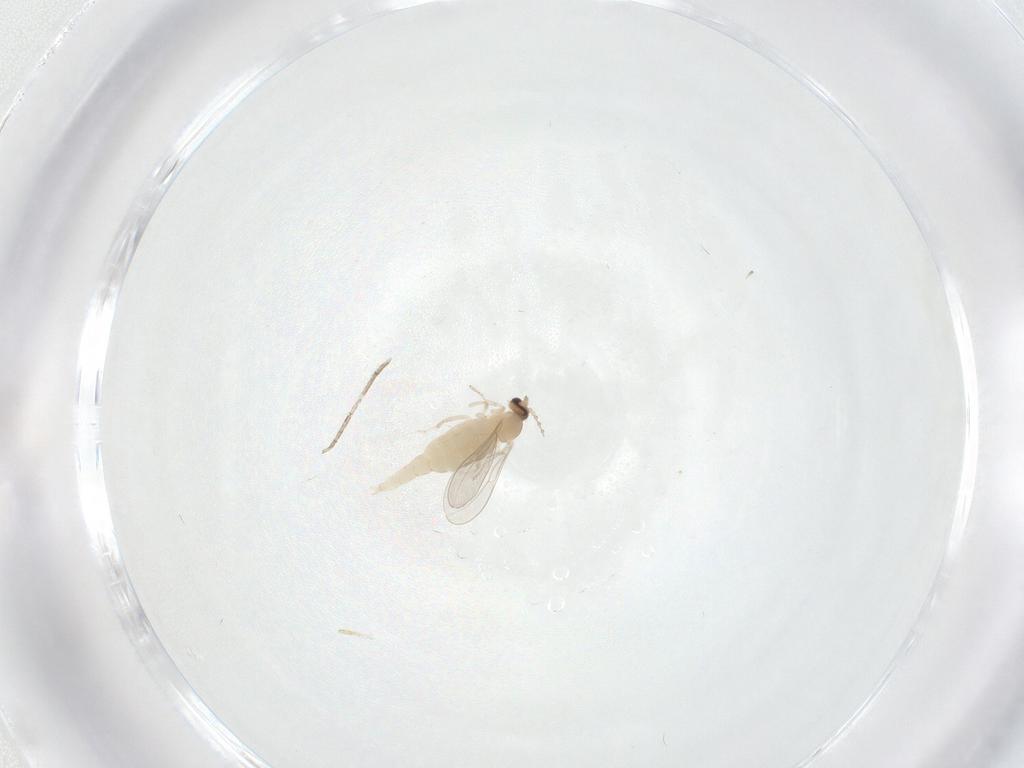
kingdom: Animalia
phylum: Arthropoda
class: Insecta
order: Diptera
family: Cecidomyiidae
